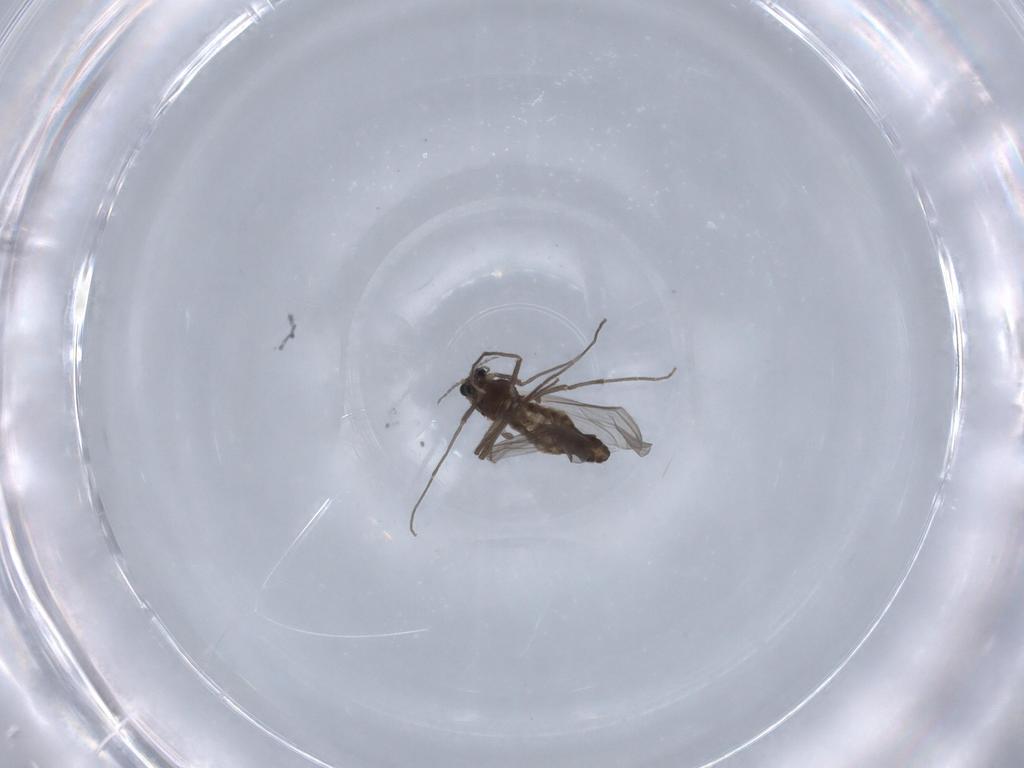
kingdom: Animalia
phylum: Arthropoda
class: Insecta
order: Diptera
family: Chironomidae
